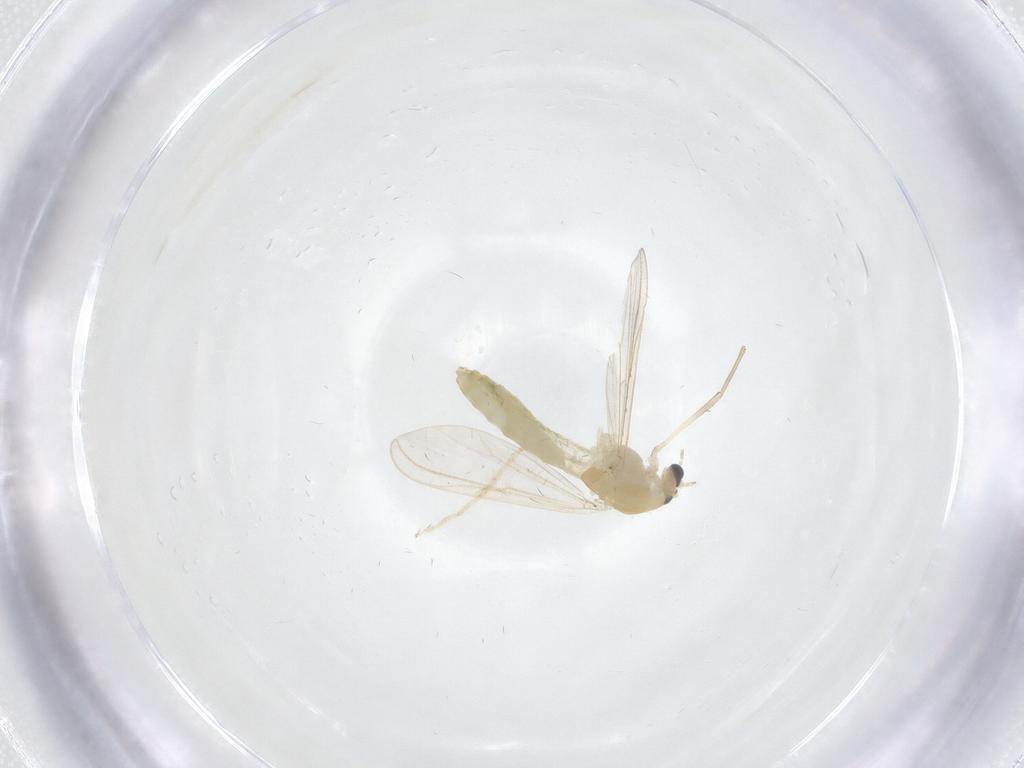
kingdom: Animalia
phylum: Arthropoda
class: Insecta
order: Diptera
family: Chironomidae
